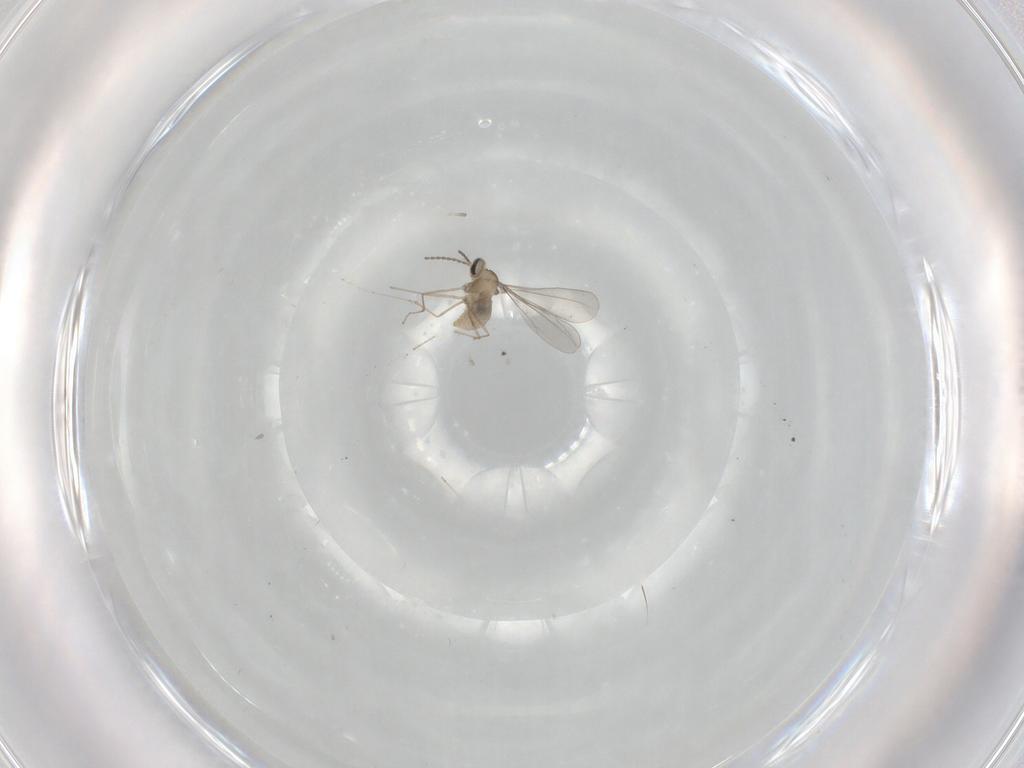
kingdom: Animalia
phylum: Arthropoda
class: Insecta
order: Diptera
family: Cecidomyiidae
